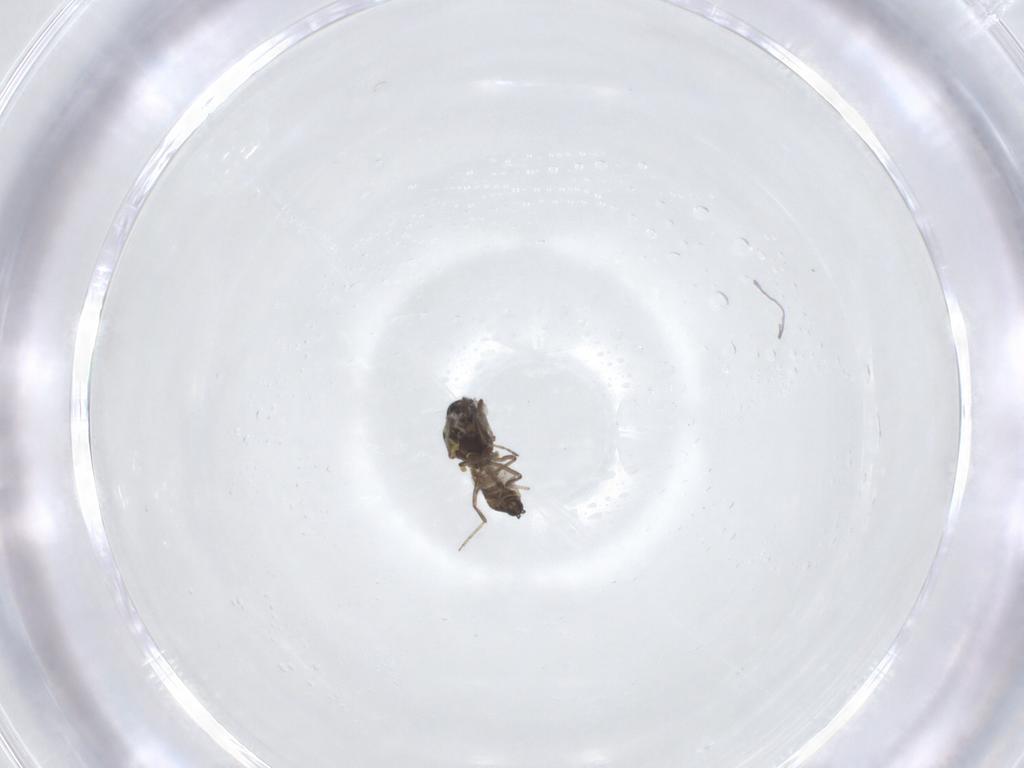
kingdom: Animalia
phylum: Arthropoda
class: Insecta
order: Diptera
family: Ceratopogonidae
